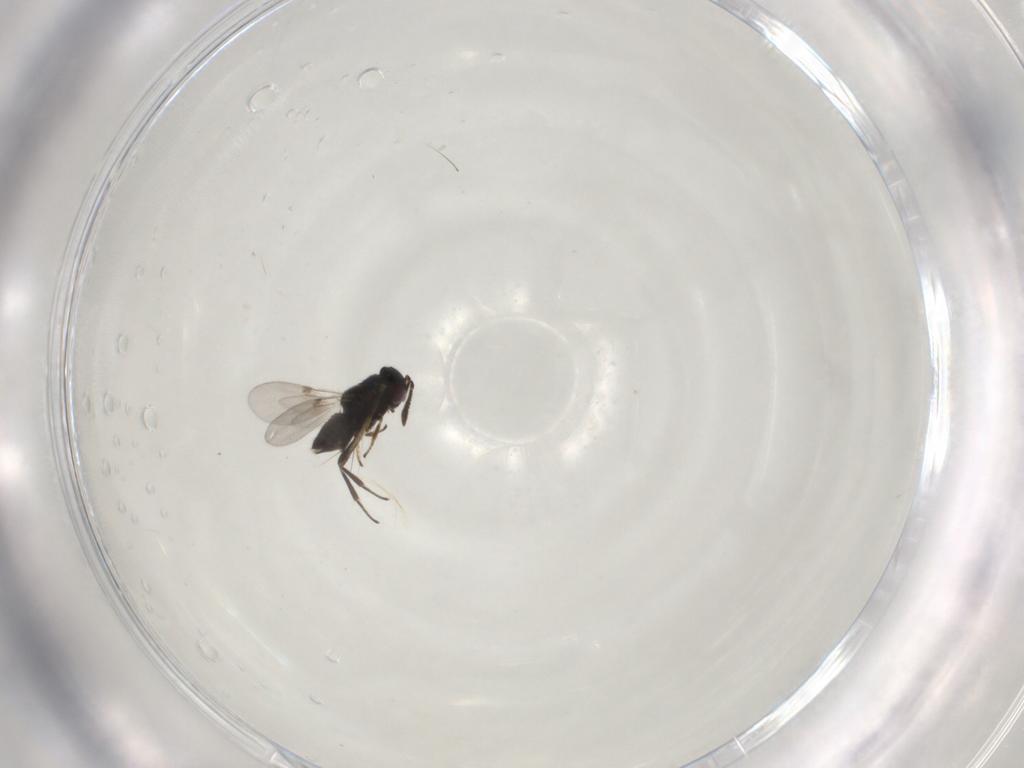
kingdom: Animalia
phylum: Arthropoda
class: Insecta
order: Hymenoptera
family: Encyrtidae
